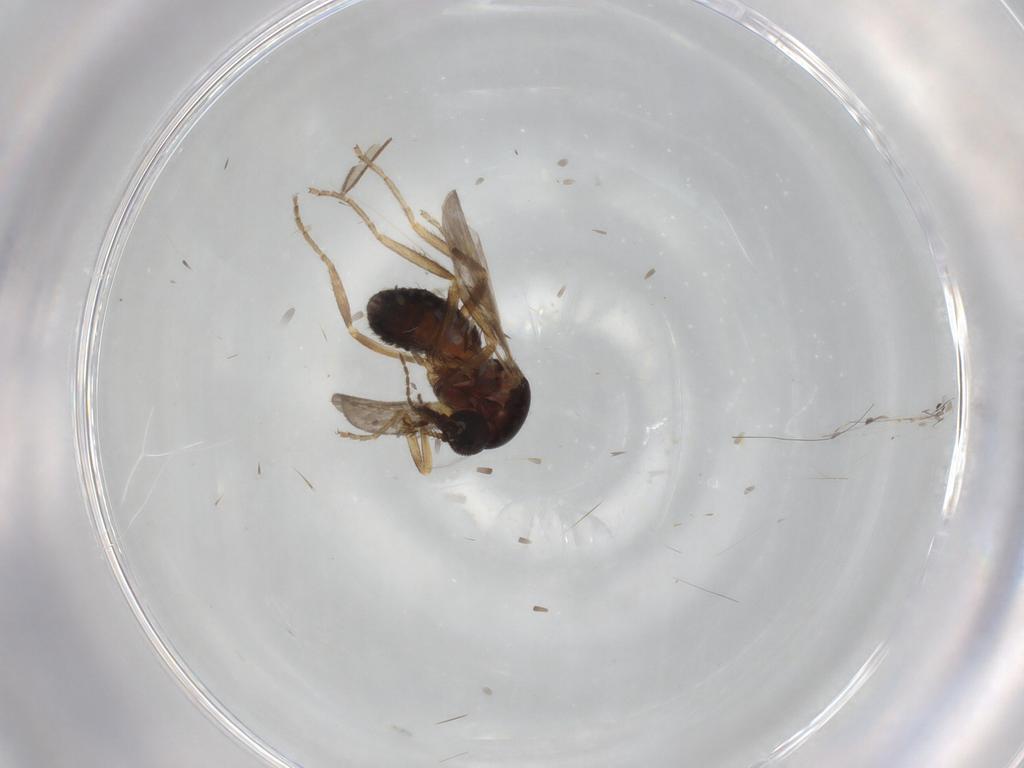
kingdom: Animalia
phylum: Arthropoda
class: Insecta
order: Diptera
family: Ceratopogonidae
